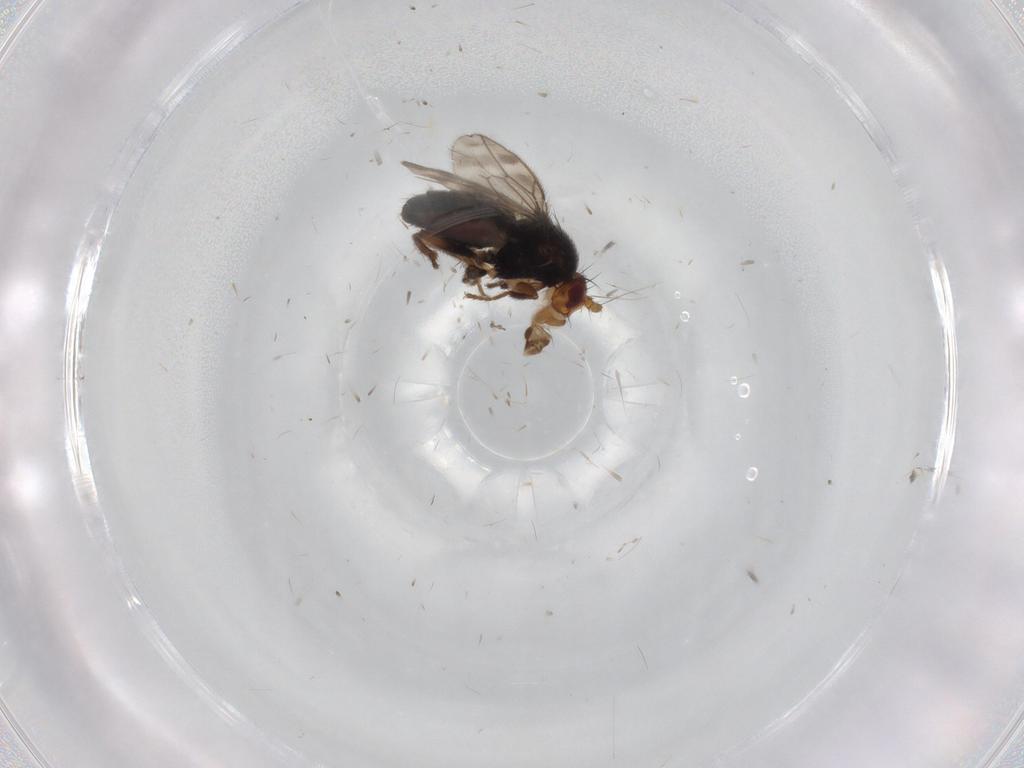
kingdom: Animalia
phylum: Arthropoda
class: Insecta
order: Diptera
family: Sphaeroceridae
